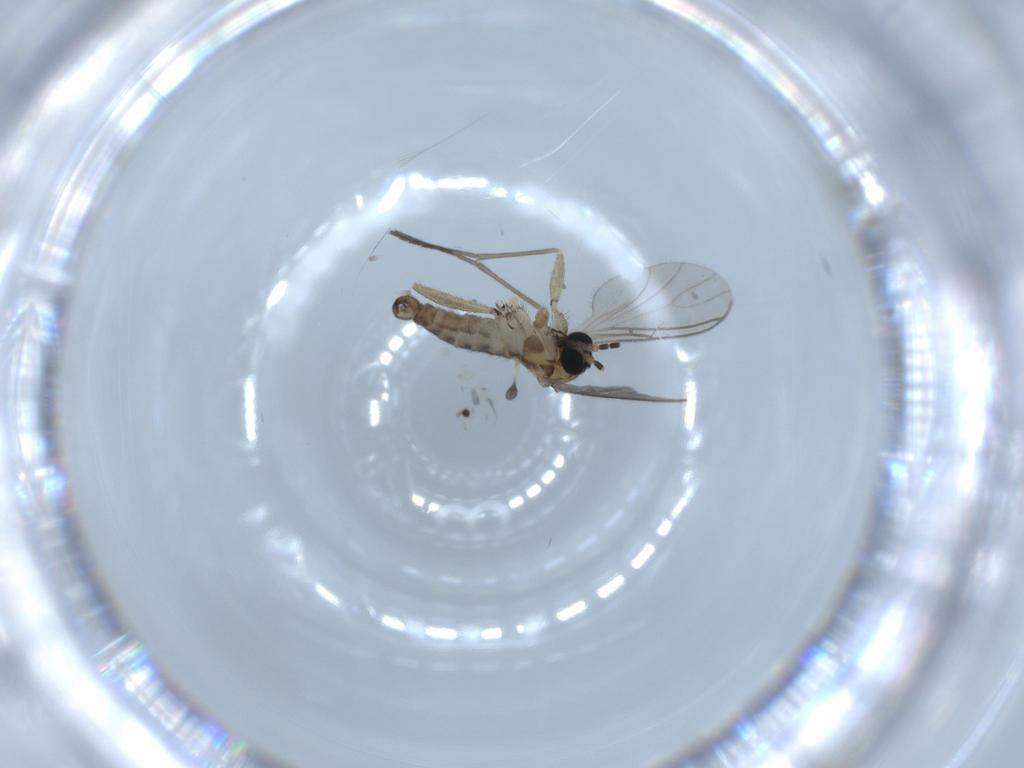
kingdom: Animalia
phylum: Arthropoda
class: Insecta
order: Diptera
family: Sciaridae
